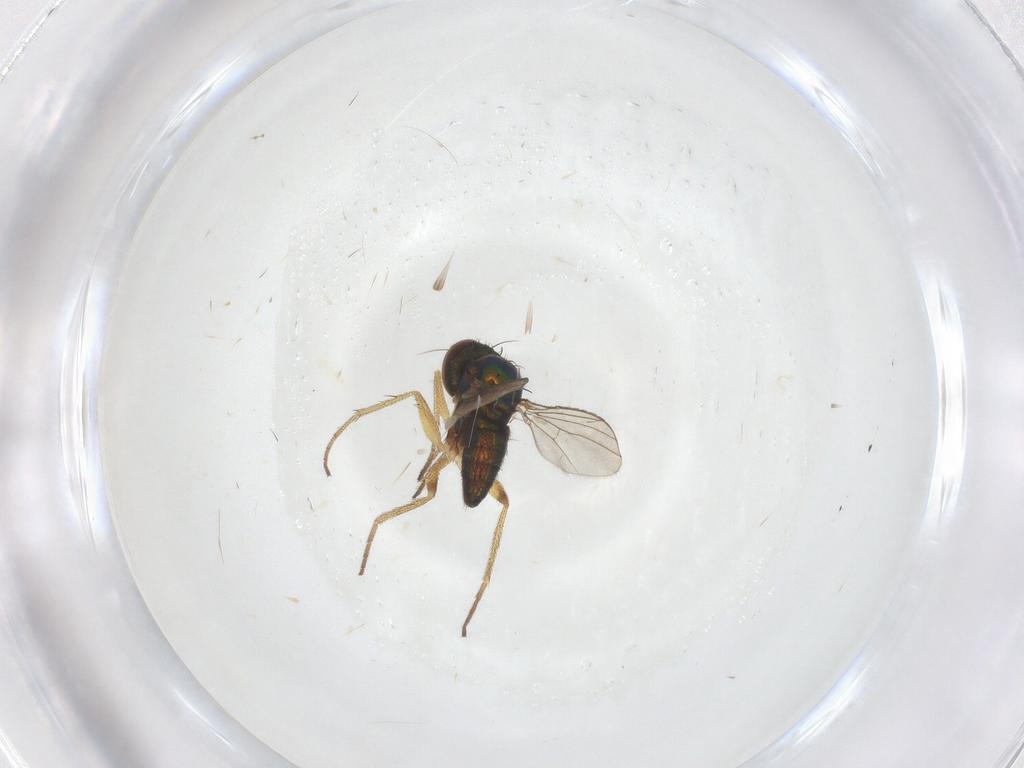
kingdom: Animalia
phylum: Arthropoda
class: Insecta
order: Diptera
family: Dolichopodidae
